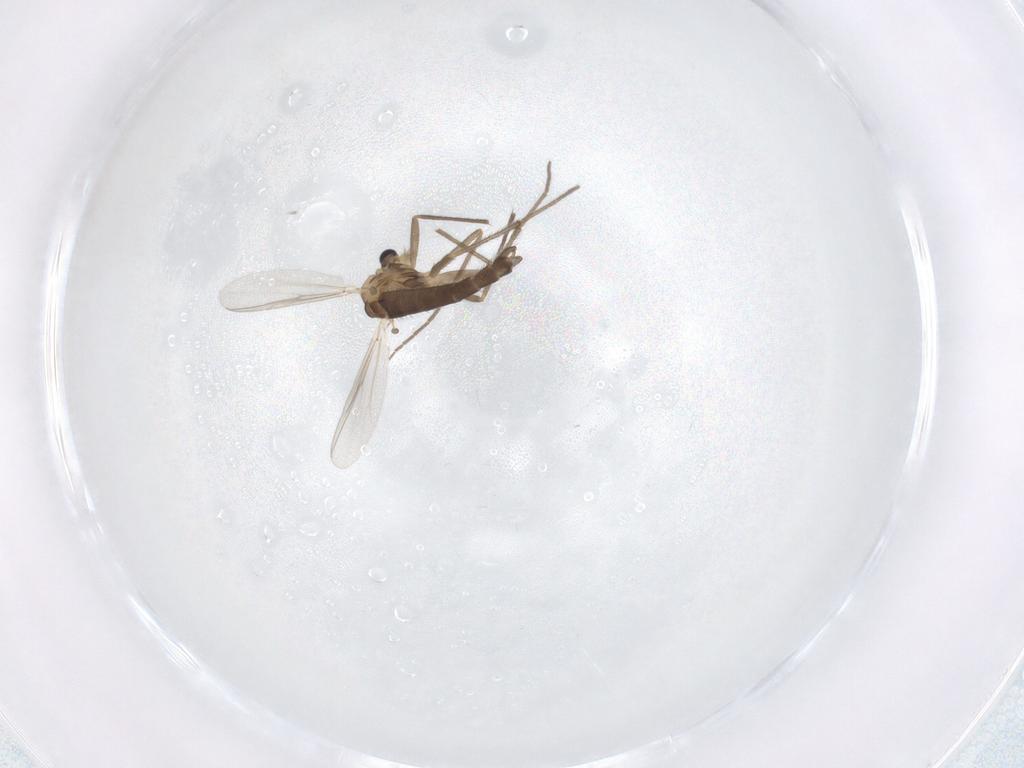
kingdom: Animalia
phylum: Arthropoda
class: Insecta
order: Diptera
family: Chironomidae
